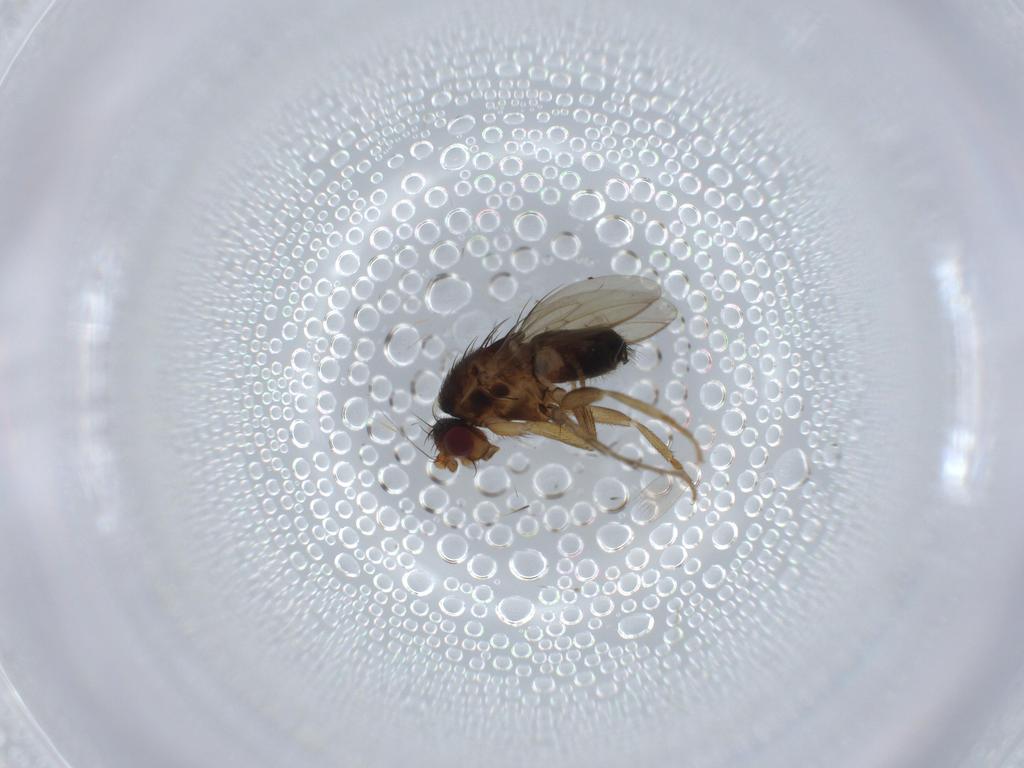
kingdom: Animalia
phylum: Arthropoda
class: Insecta
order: Diptera
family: Sphaeroceridae
